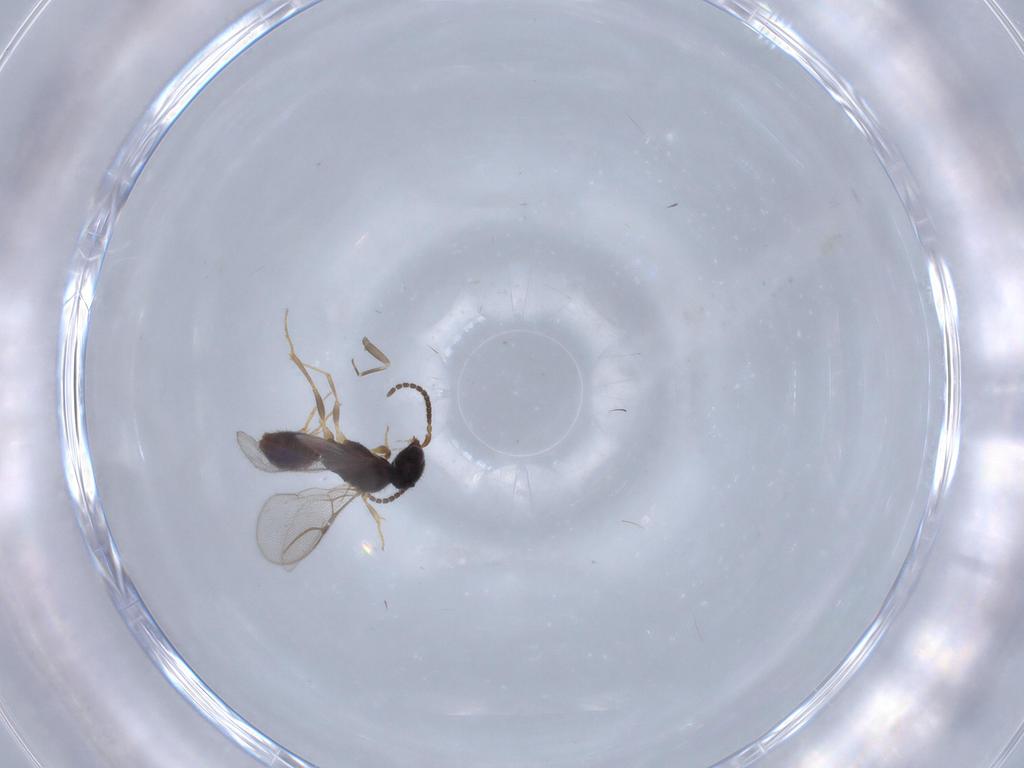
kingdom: Animalia
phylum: Arthropoda
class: Insecta
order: Hymenoptera
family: Bethylidae
